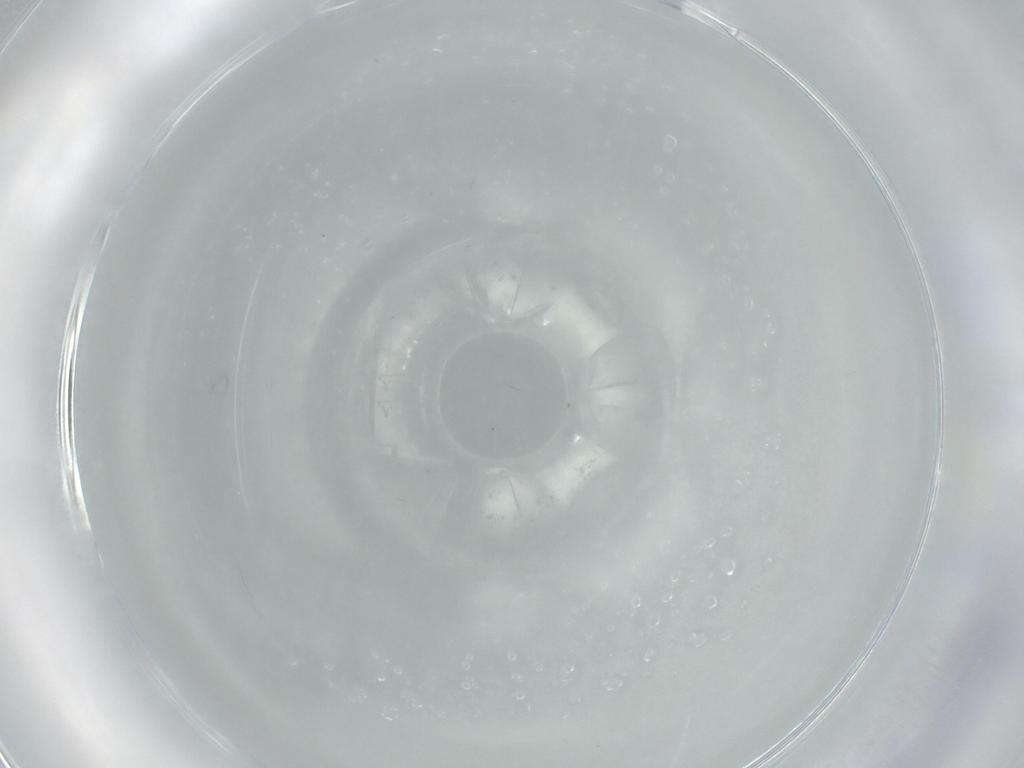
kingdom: Animalia
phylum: Arthropoda
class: Insecta
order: Hymenoptera
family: Mymaridae
